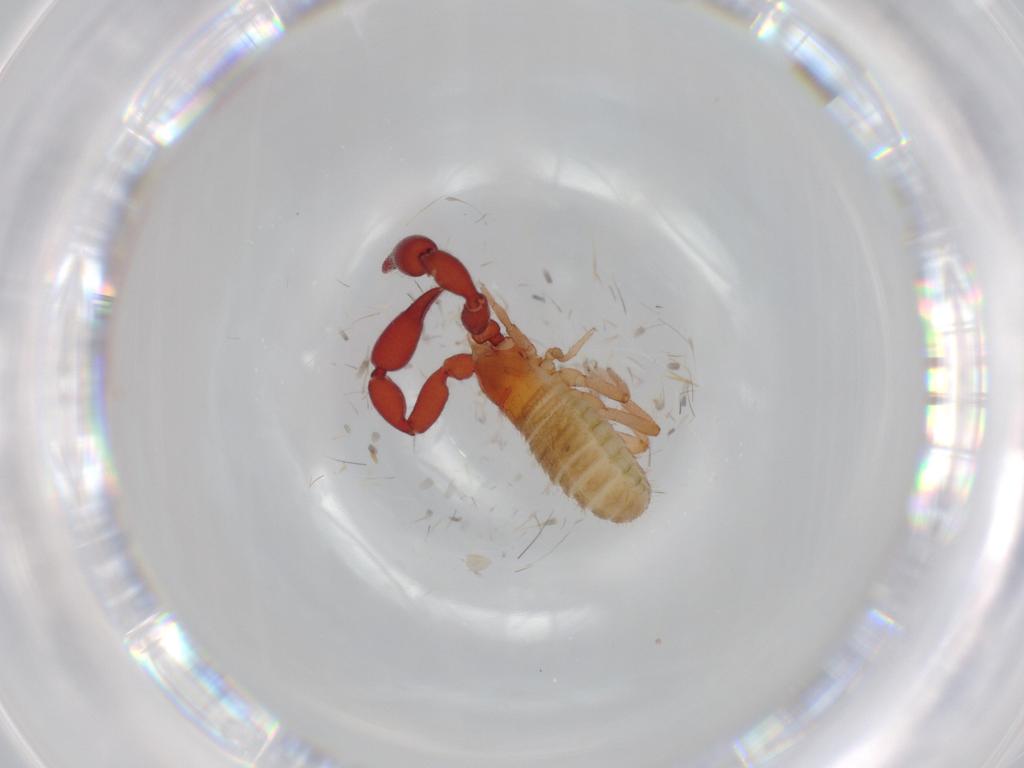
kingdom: Animalia
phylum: Arthropoda
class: Arachnida
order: Pseudoscorpiones
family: Chernetidae
